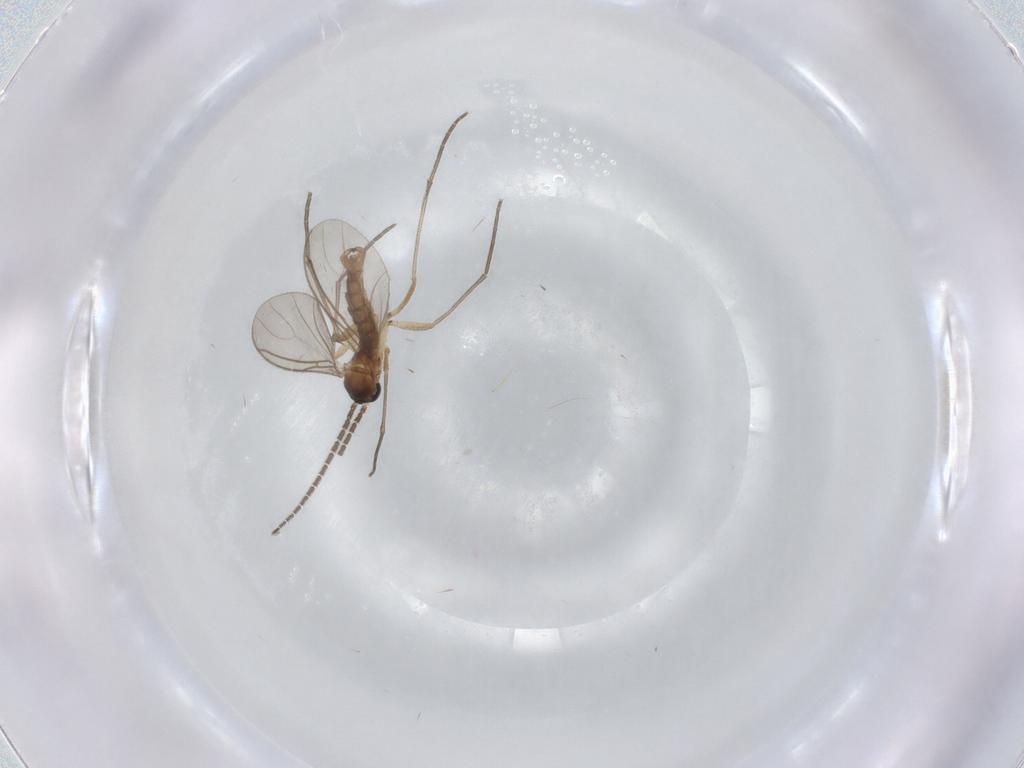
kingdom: Animalia
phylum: Arthropoda
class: Insecta
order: Diptera
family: Sciaridae
